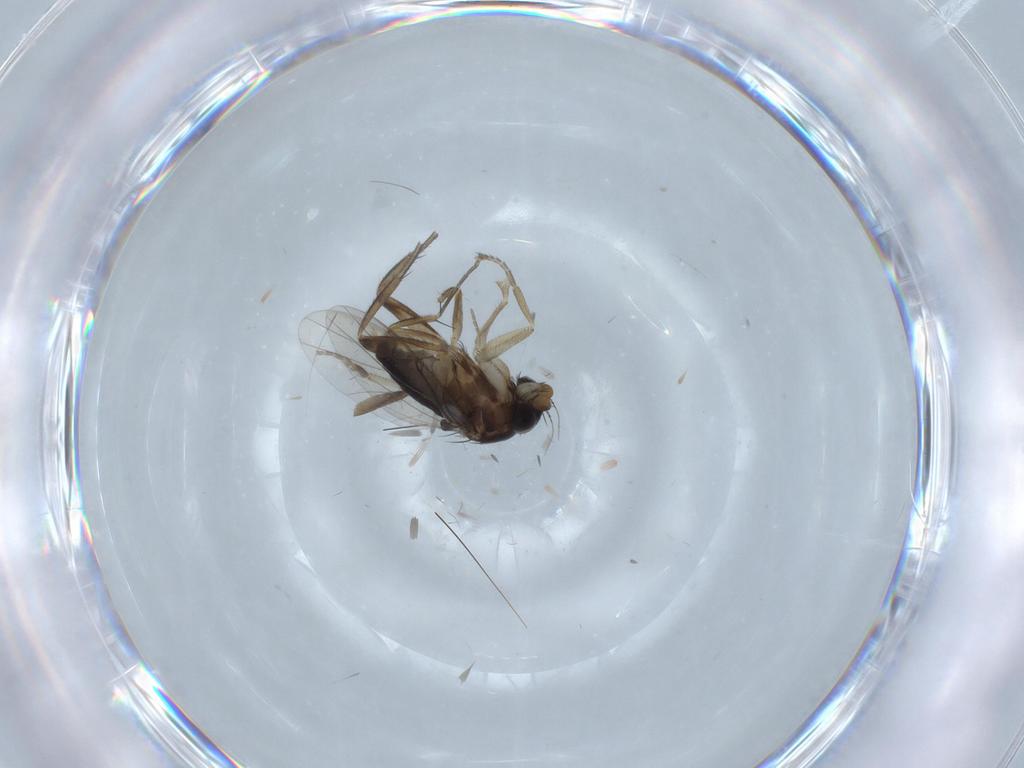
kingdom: Animalia
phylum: Arthropoda
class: Insecta
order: Diptera
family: Phoridae
